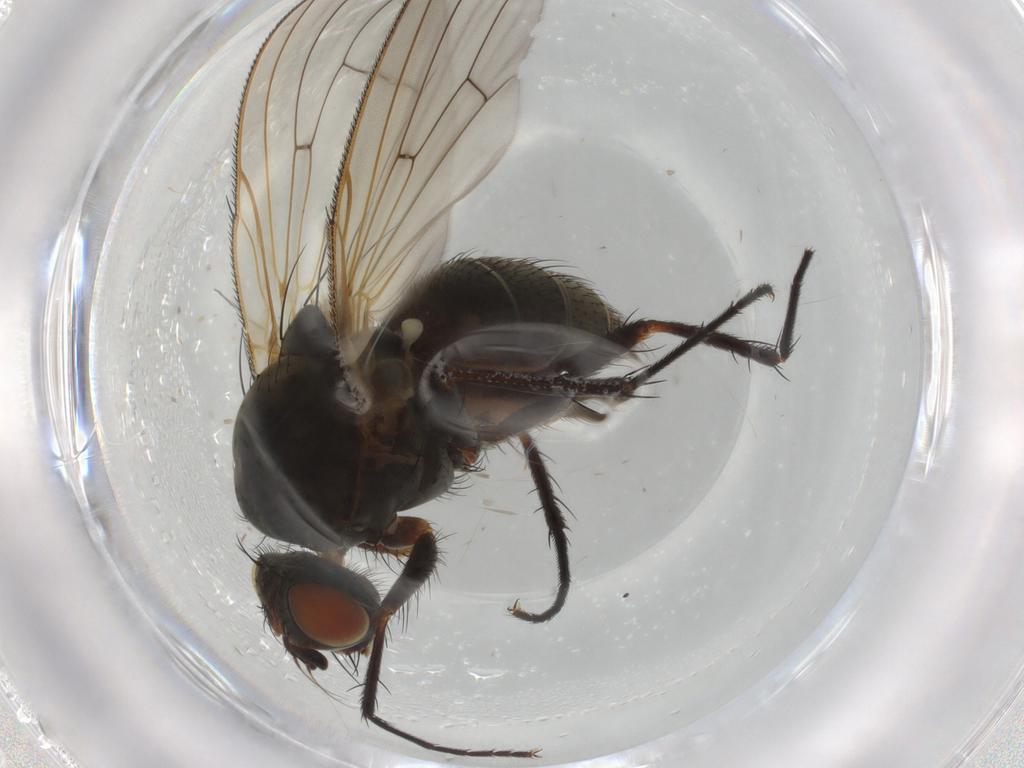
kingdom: Animalia
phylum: Arthropoda
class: Insecta
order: Diptera
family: Anthomyiidae
